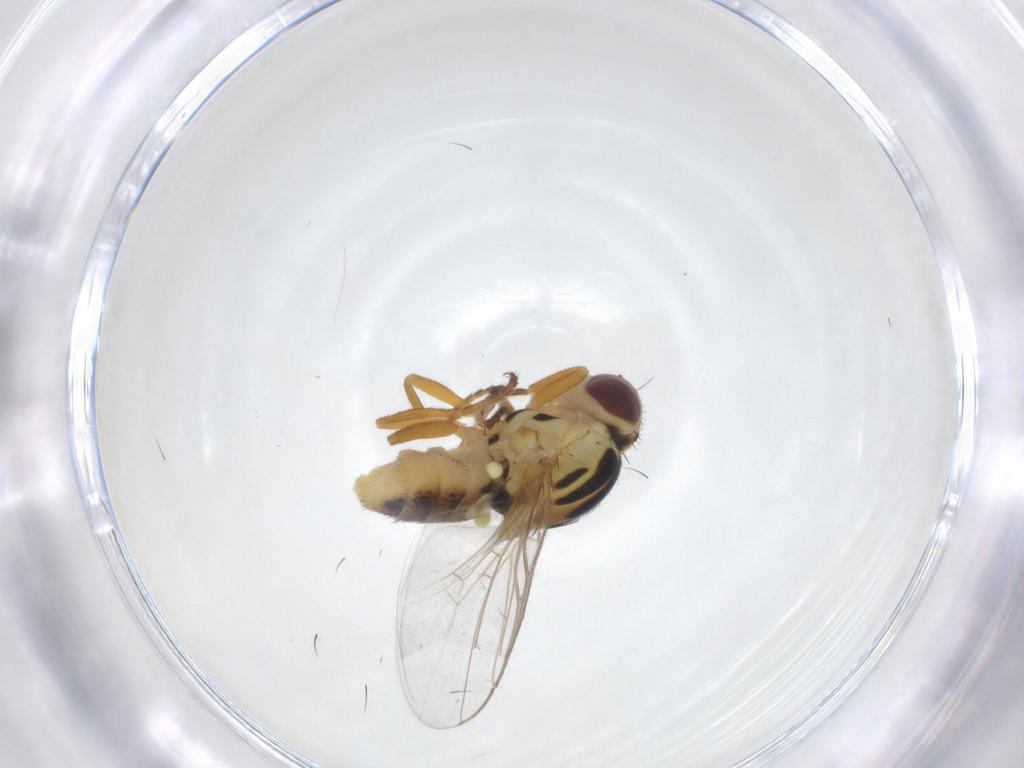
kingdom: Animalia
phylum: Arthropoda
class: Insecta
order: Diptera
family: Chloropidae
